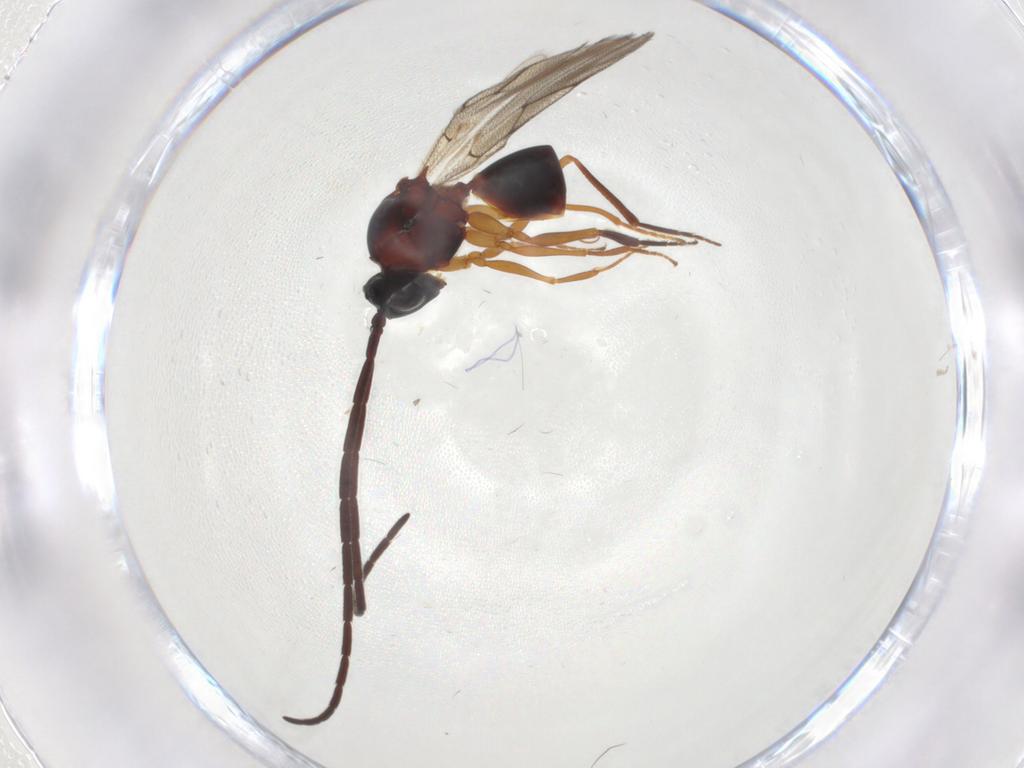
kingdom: Animalia
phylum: Arthropoda
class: Insecta
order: Hymenoptera
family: Figitidae
